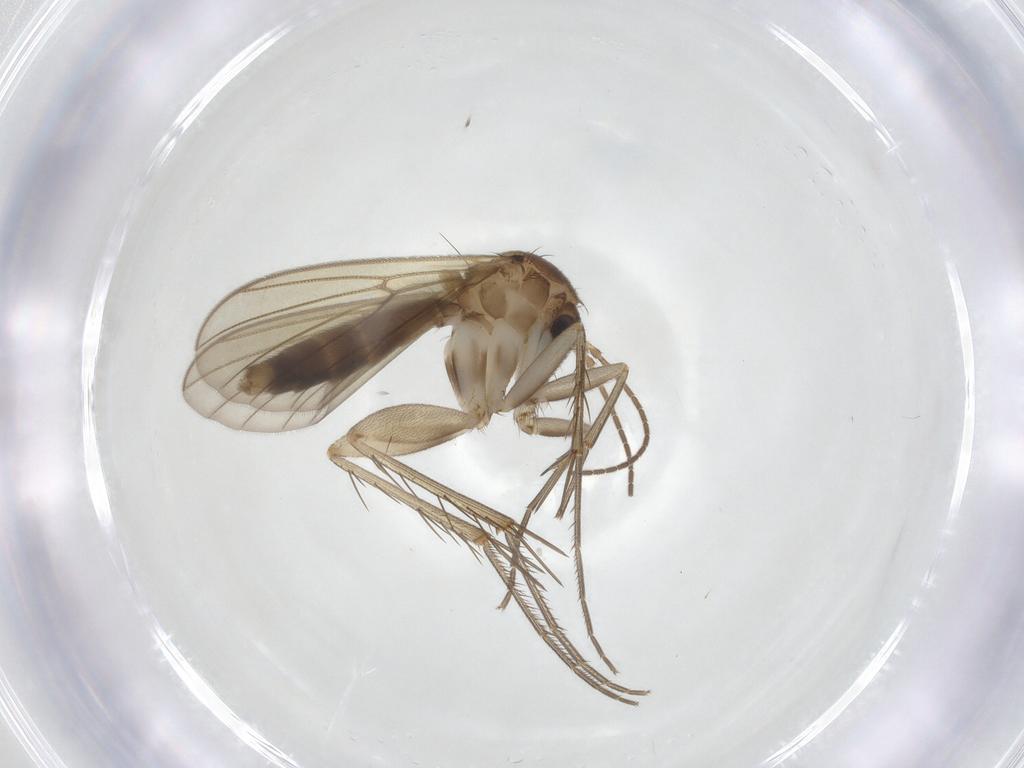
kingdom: Animalia
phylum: Arthropoda
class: Insecta
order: Diptera
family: Mycetophilidae
